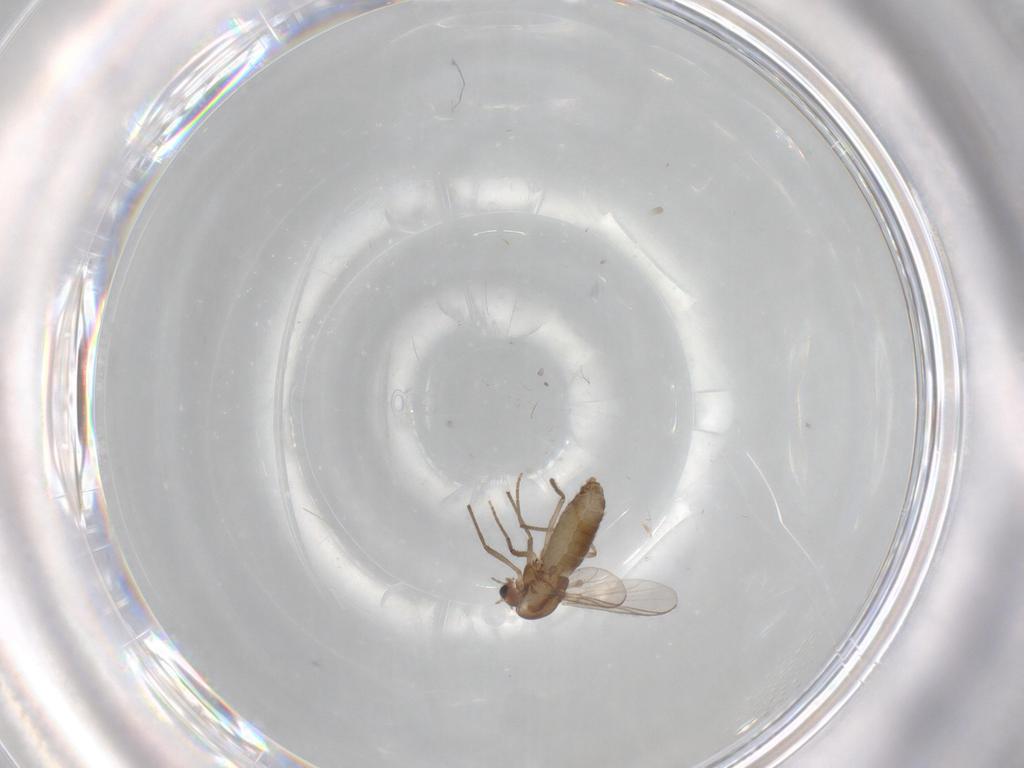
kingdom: Animalia
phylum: Arthropoda
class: Insecta
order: Diptera
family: Chironomidae
